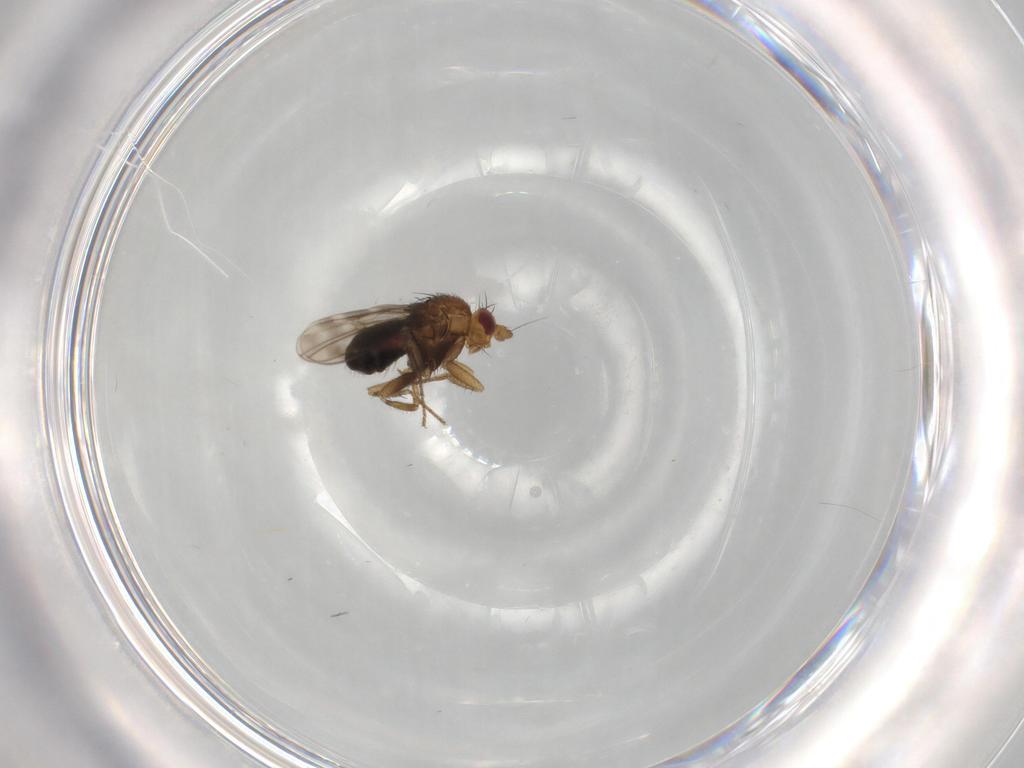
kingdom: Animalia
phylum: Arthropoda
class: Insecta
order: Diptera
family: Sphaeroceridae
